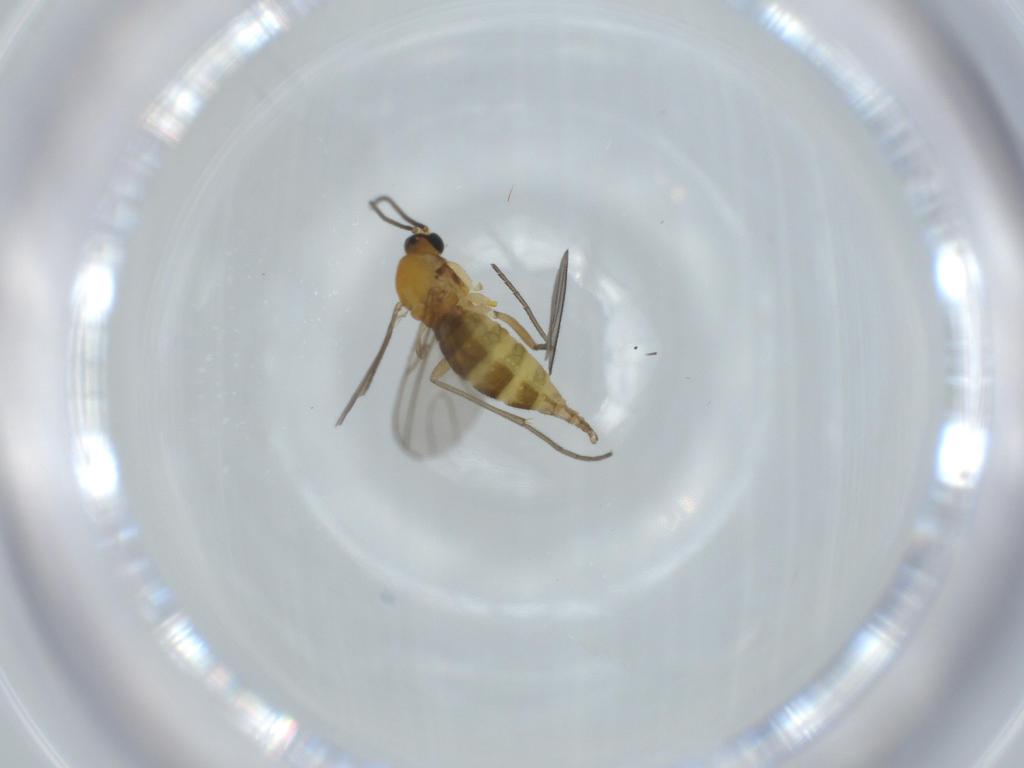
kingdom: Animalia
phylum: Arthropoda
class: Insecta
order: Diptera
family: Sciaridae
